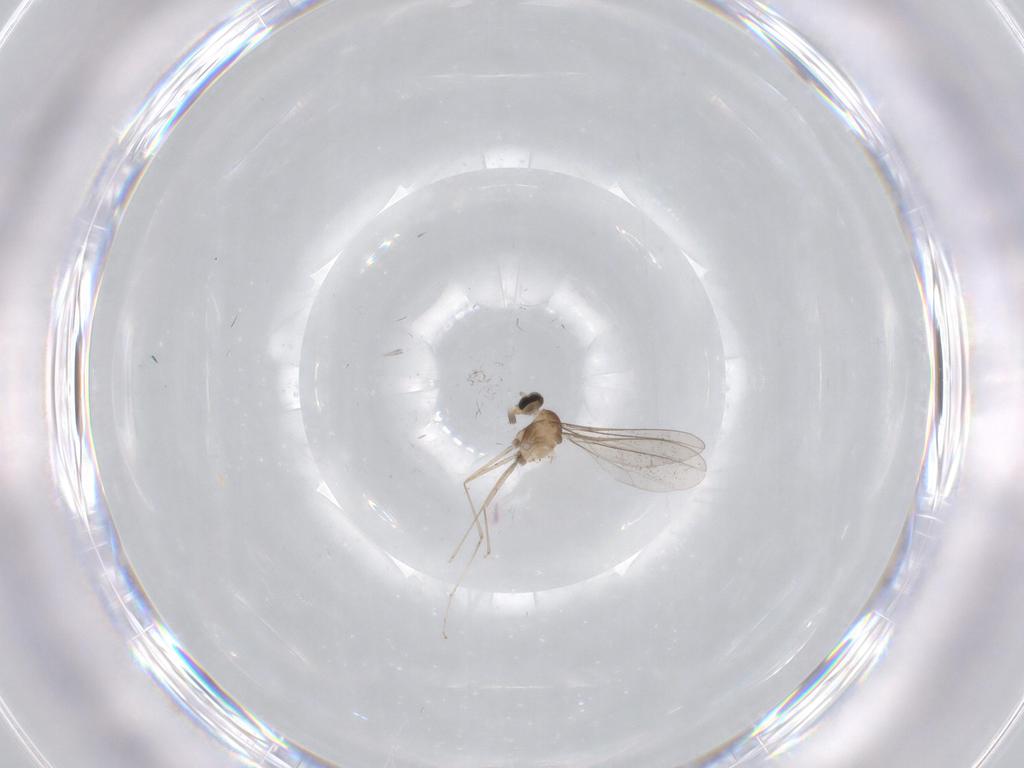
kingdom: Animalia
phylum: Arthropoda
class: Insecta
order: Diptera
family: Cecidomyiidae
